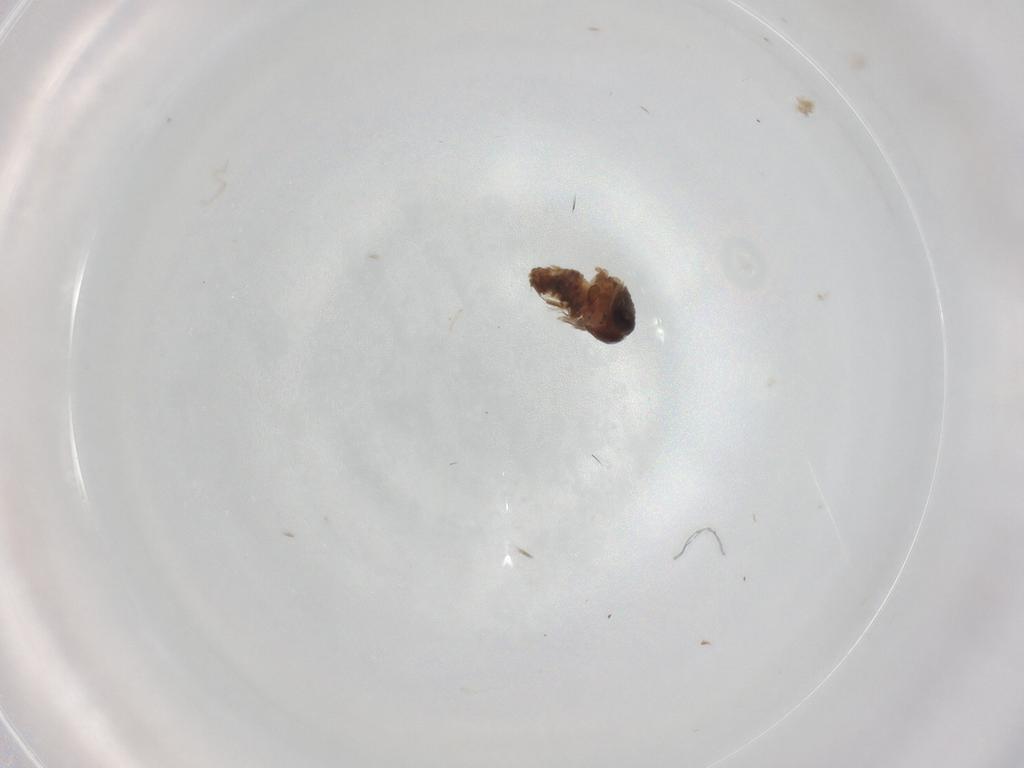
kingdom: Animalia
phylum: Arthropoda
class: Insecta
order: Diptera
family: Psychodidae
